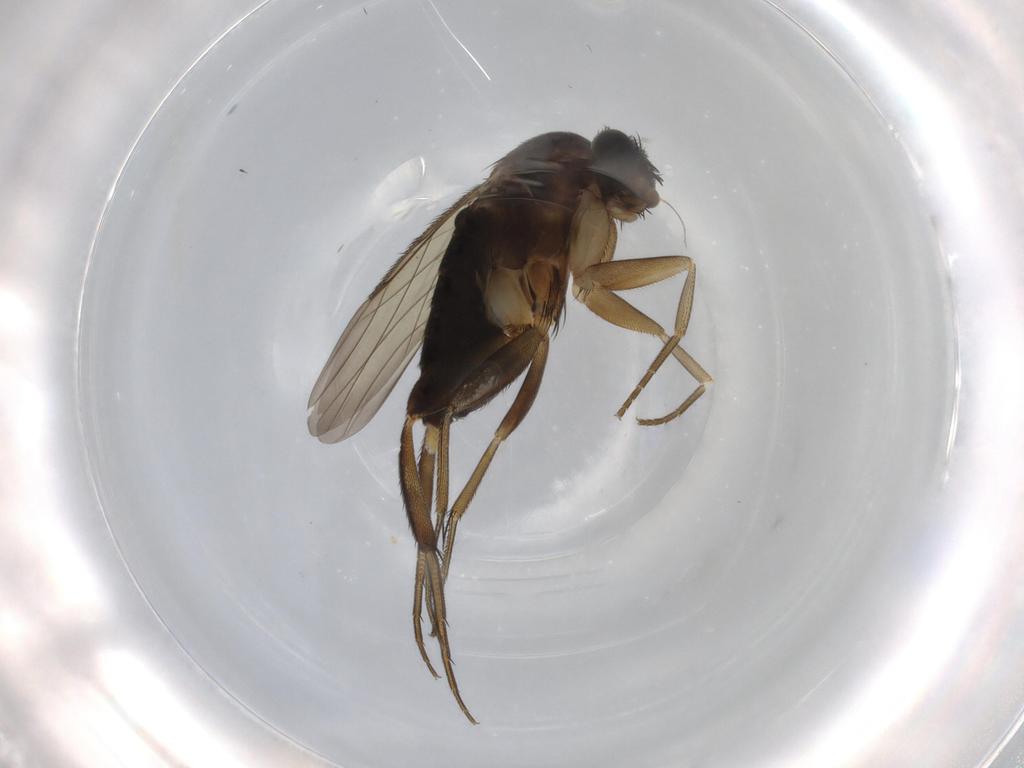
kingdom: Animalia
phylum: Arthropoda
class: Insecta
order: Diptera
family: Phoridae
